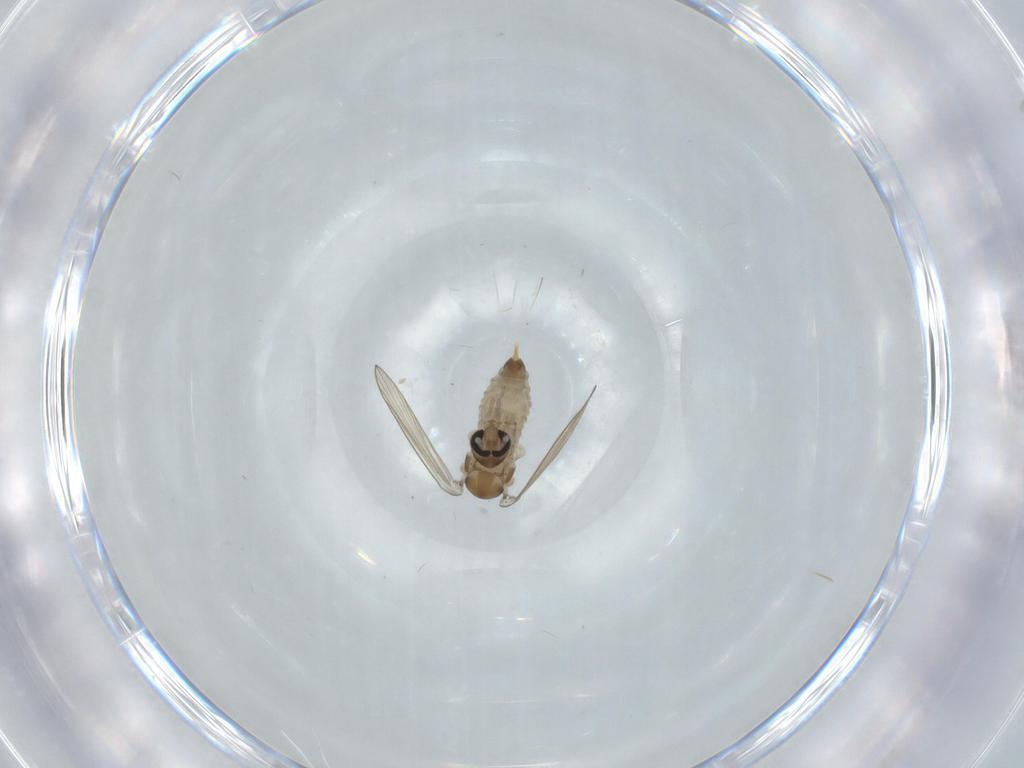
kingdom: Animalia
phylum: Arthropoda
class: Insecta
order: Diptera
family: Psychodidae
